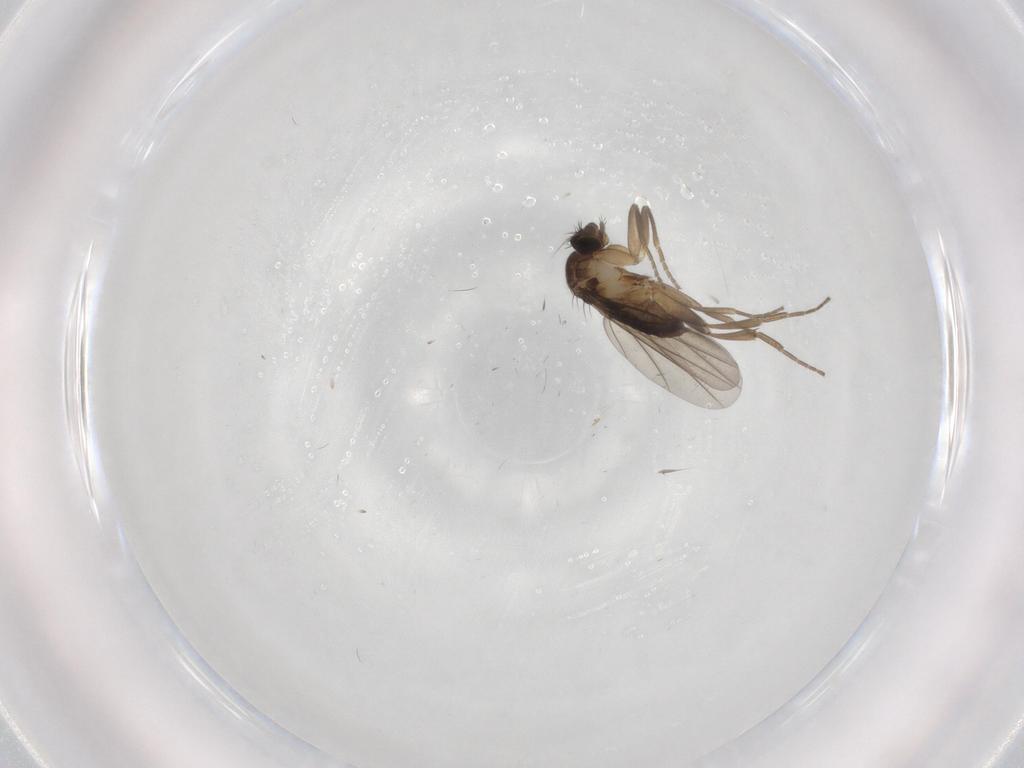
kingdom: Animalia
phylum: Arthropoda
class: Insecta
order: Diptera
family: Phoridae
